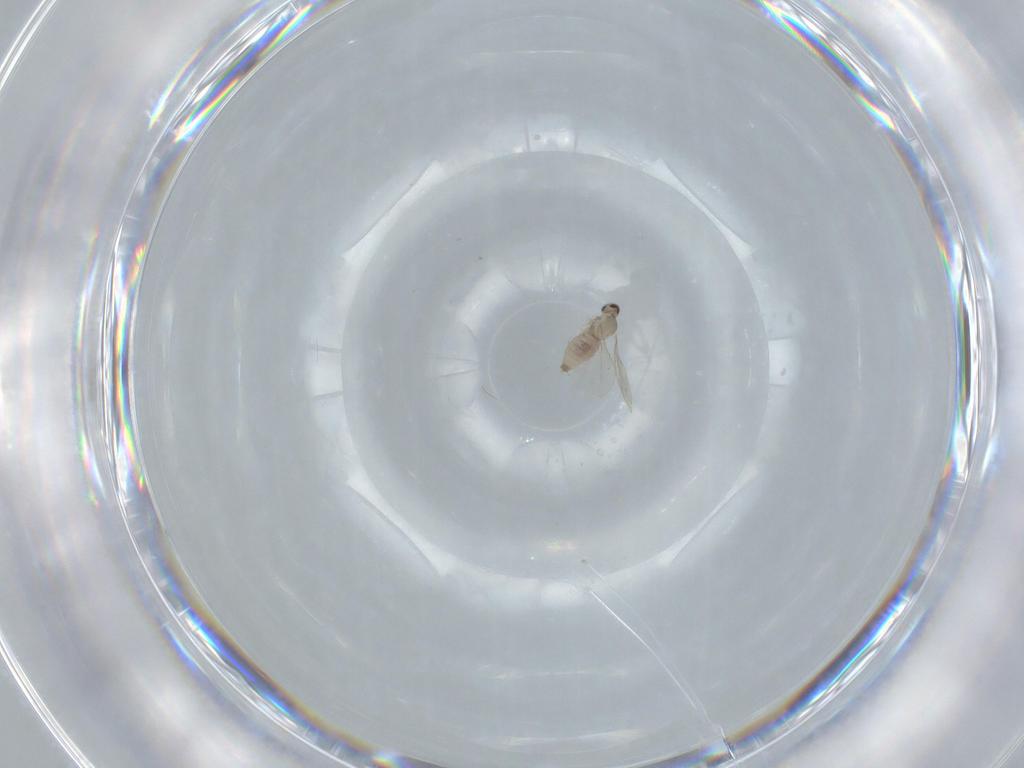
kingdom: Animalia
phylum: Arthropoda
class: Insecta
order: Diptera
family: Cecidomyiidae
